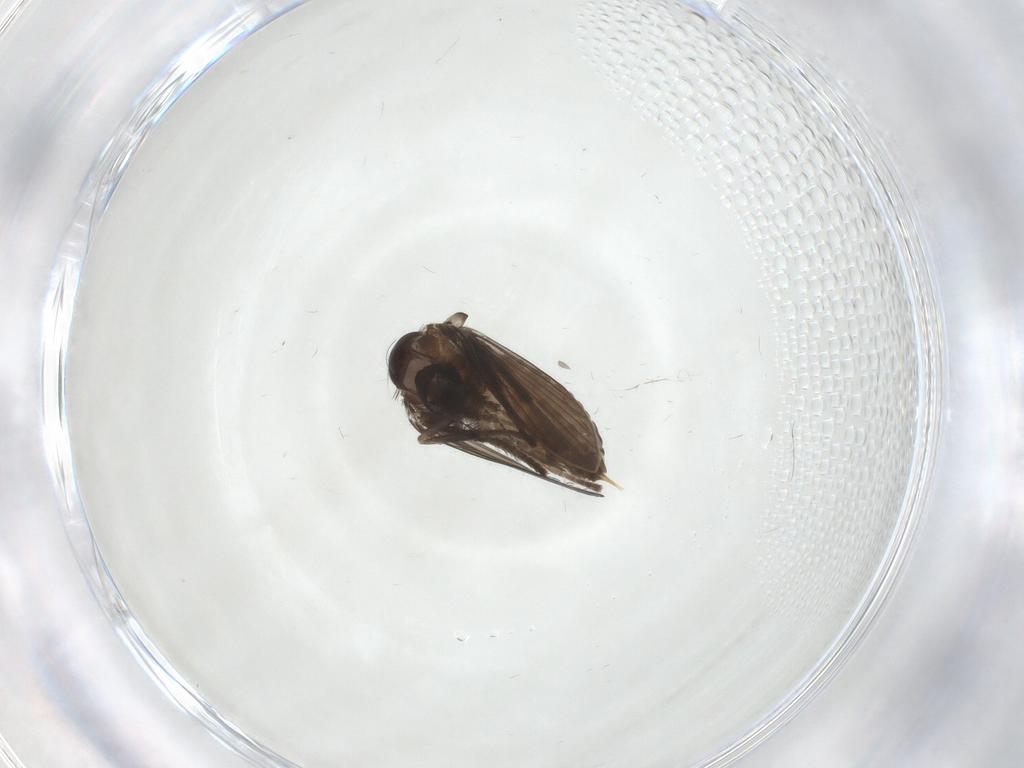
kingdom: Animalia
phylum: Arthropoda
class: Insecta
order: Diptera
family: Psychodidae
